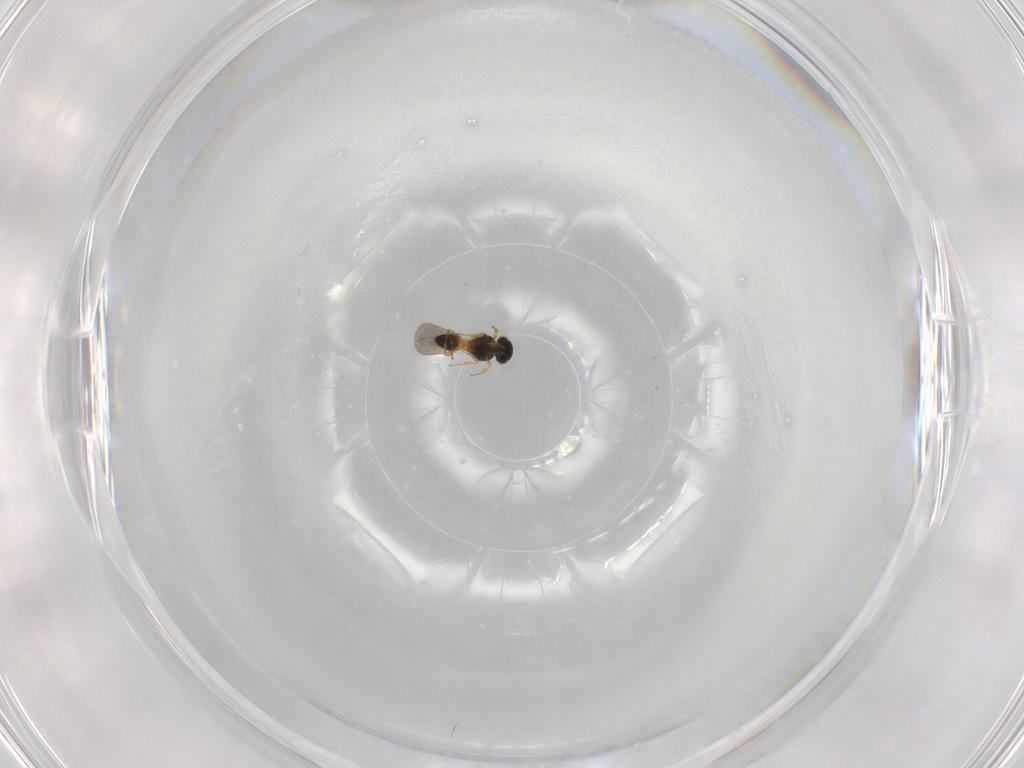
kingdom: Animalia
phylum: Arthropoda
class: Insecta
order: Hymenoptera
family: Platygastridae
